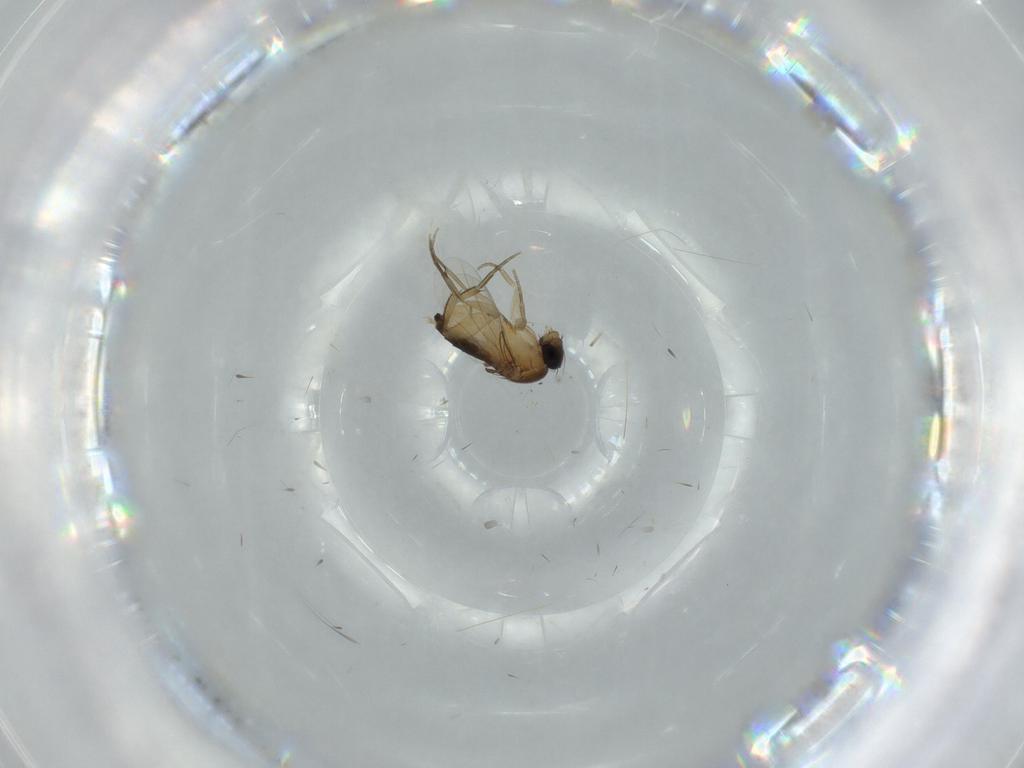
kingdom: Animalia
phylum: Arthropoda
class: Insecta
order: Diptera
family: Phoridae
